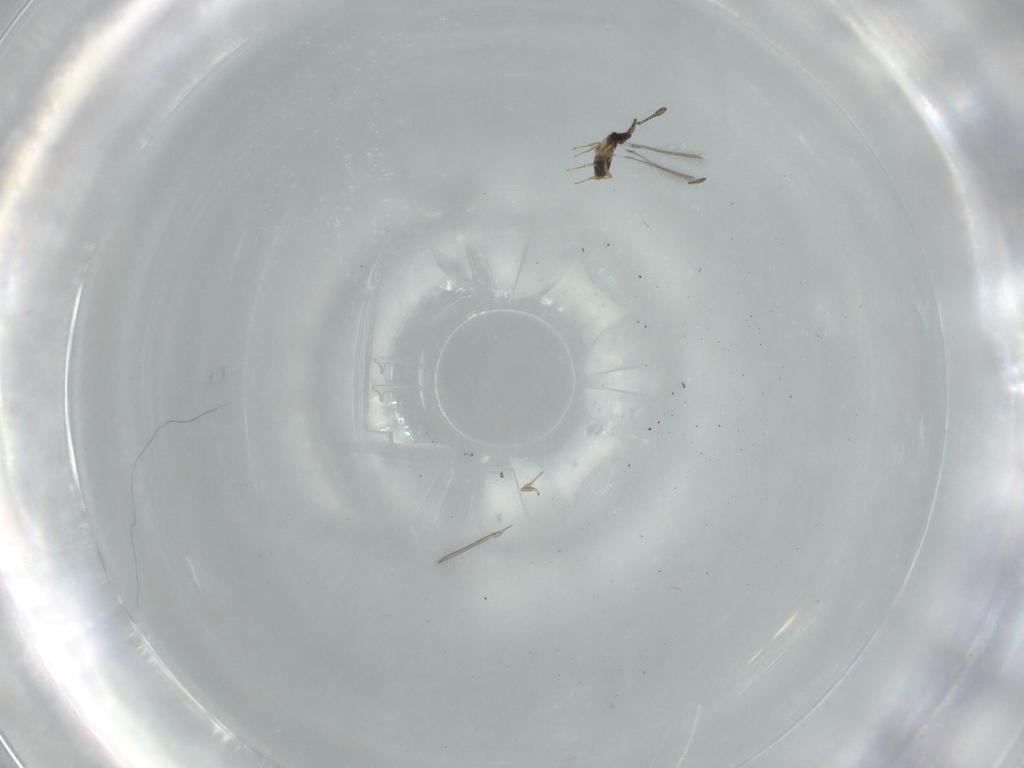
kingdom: Animalia
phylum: Arthropoda
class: Insecta
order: Hymenoptera
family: Mymaridae
